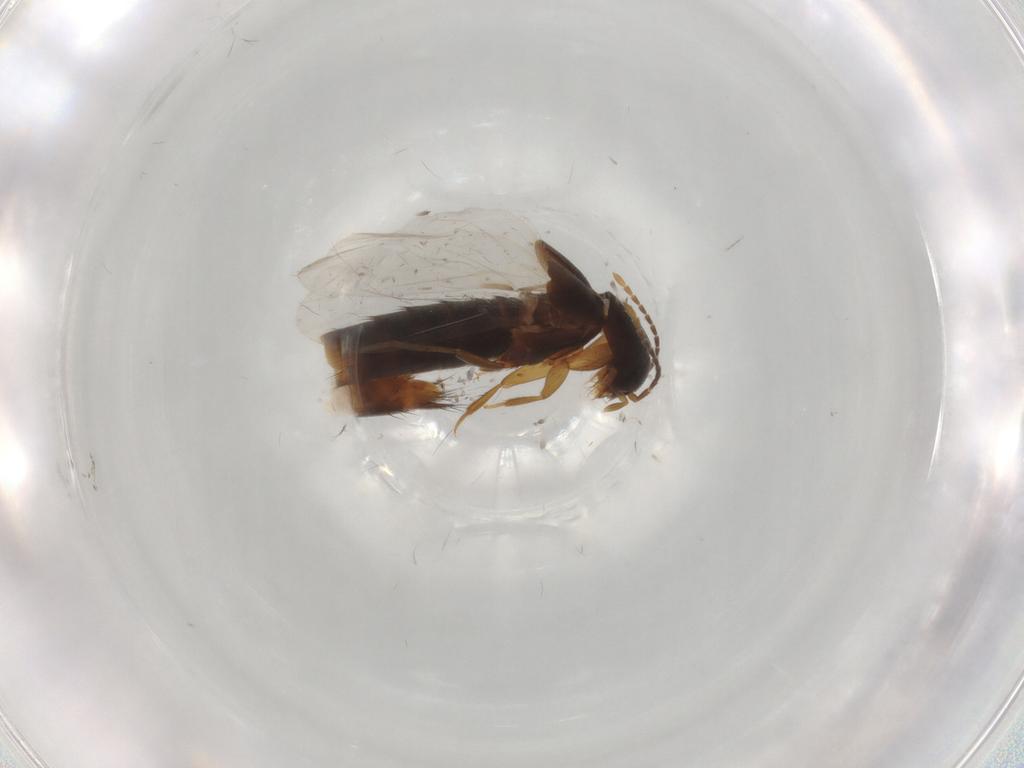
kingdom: Animalia
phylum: Arthropoda
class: Insecta
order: Coleoptera
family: Staphylinidae
